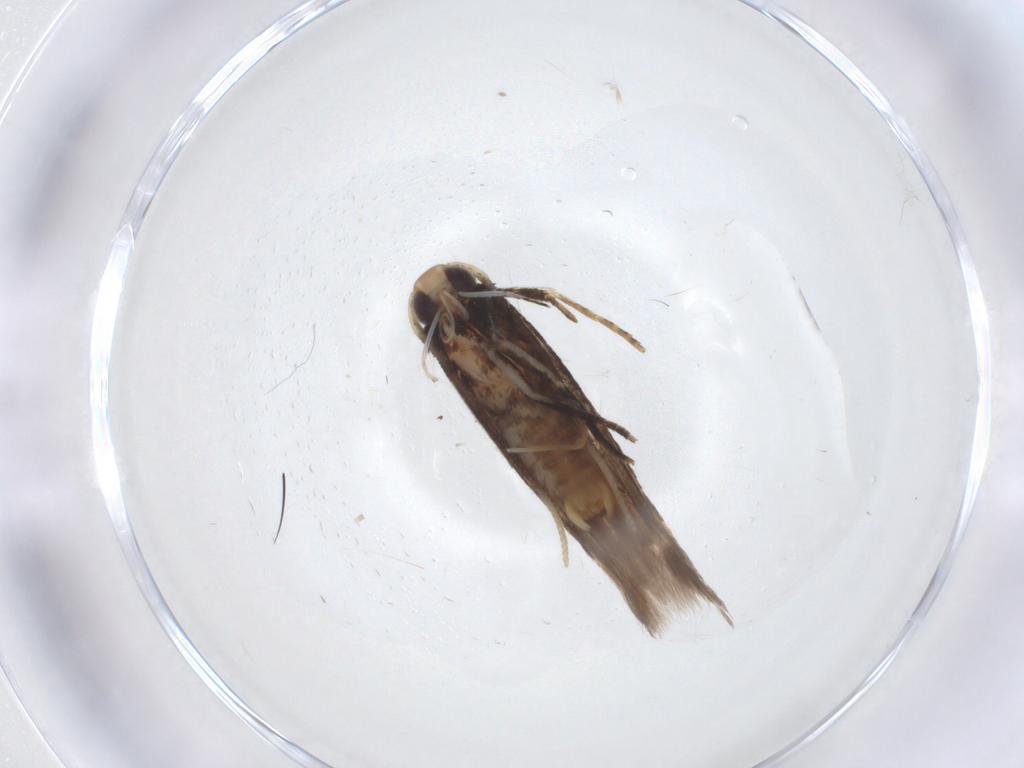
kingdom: Animalia
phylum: Arthropoda
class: Insecta
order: Lepidoptera
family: Cosmopterigidae
